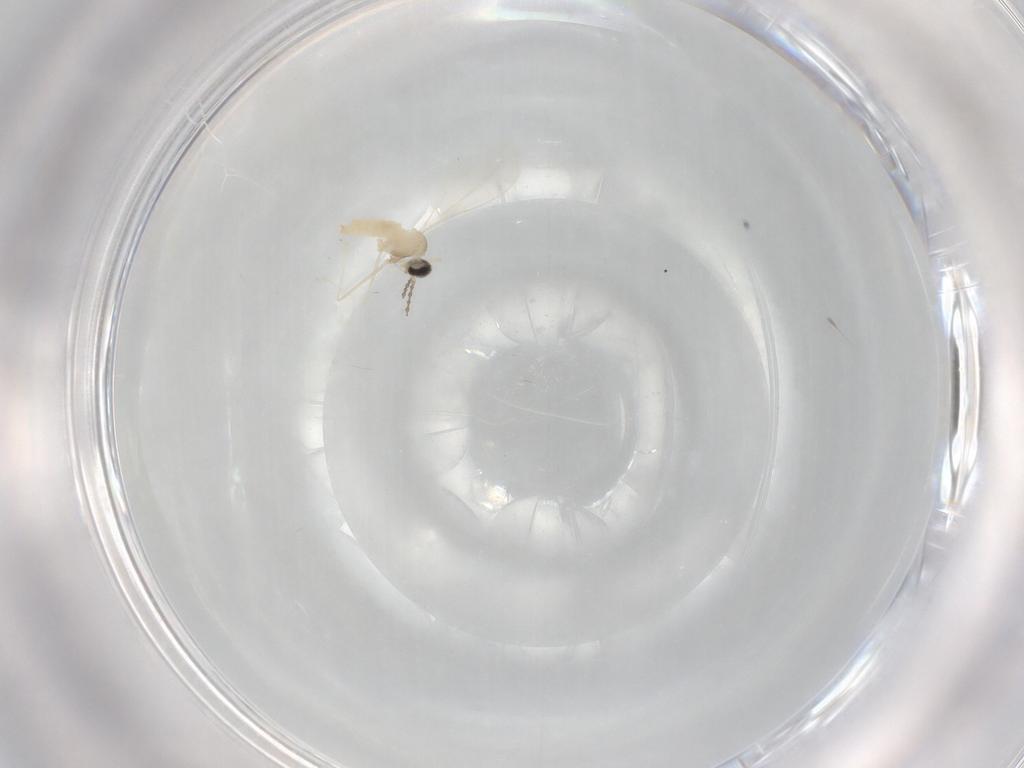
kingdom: Animalia
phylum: Arthropoda
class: Insecta
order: Diptera
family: Cecidomyiidae
